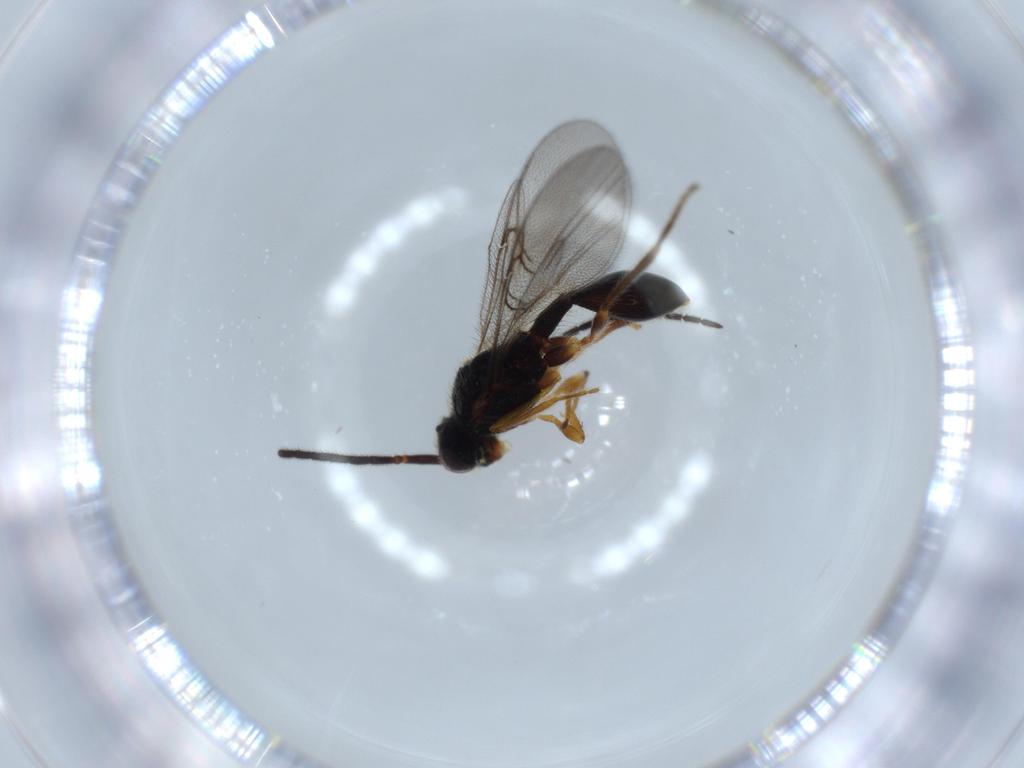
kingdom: Animalia
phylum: Arthropoda
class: Insecta
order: Hymenoptera
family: Diapriidae
